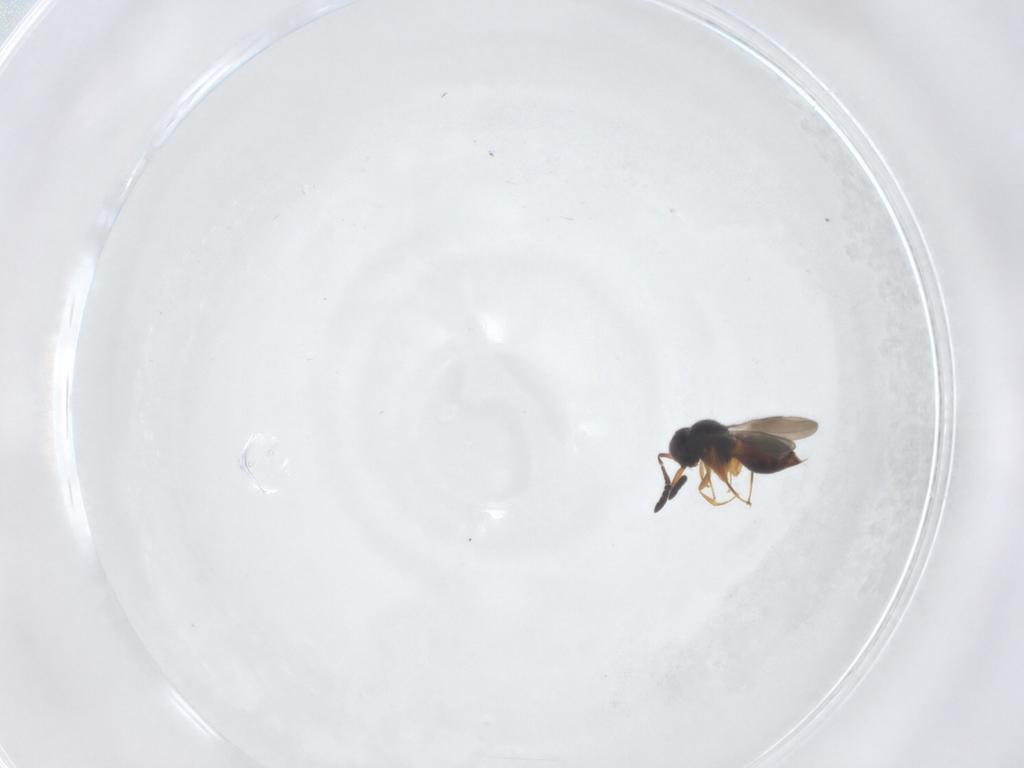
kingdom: Animalia
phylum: Arthropoda
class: Insecta
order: Hymenoptera
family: Ceraphronidae
